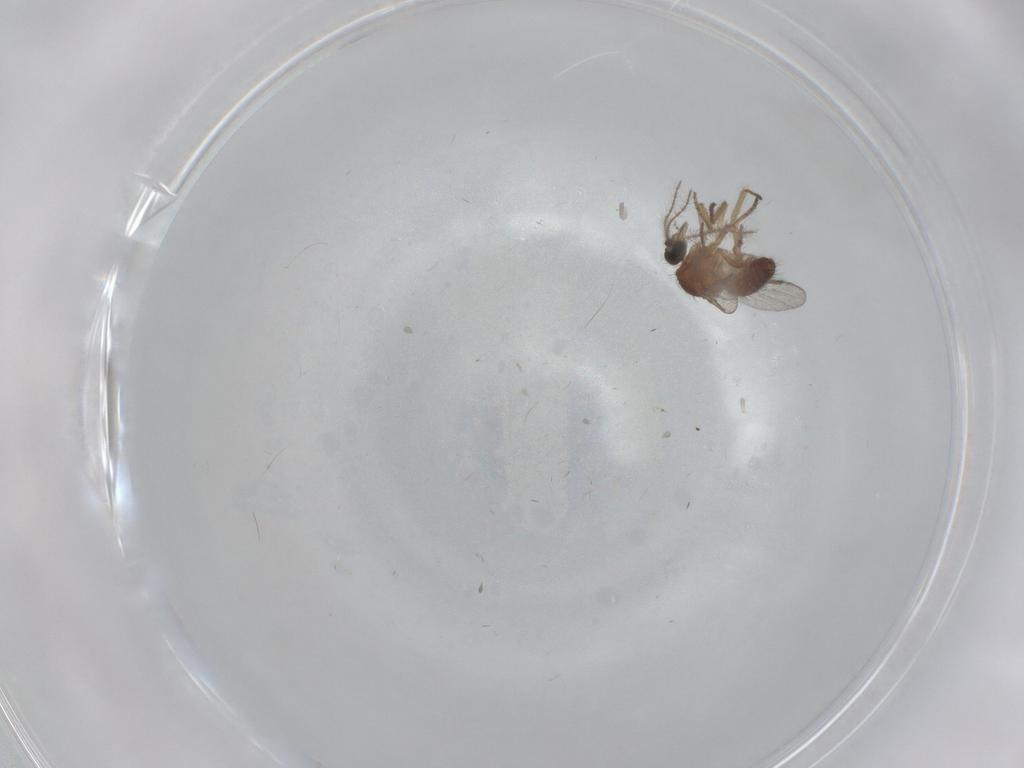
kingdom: Animalia
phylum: Arthropoda
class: Insecta
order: Diptera
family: Ceratopogonidae
